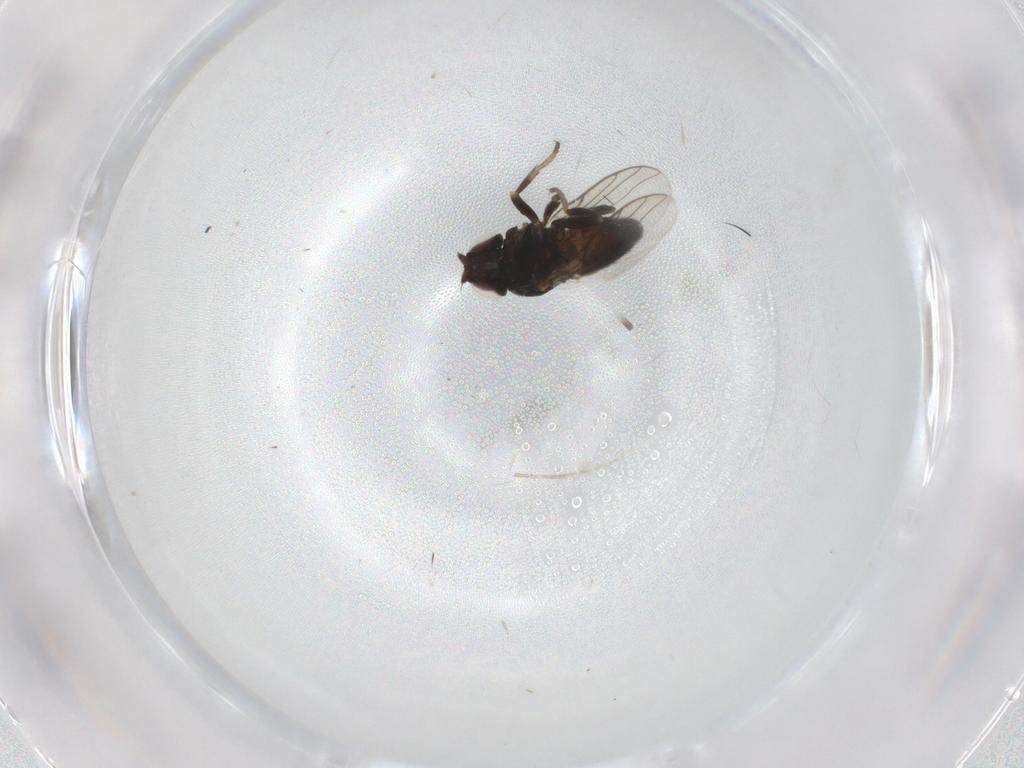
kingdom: Animalia
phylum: Arthropoda
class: Insecta
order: Diptera
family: Chloropidae
